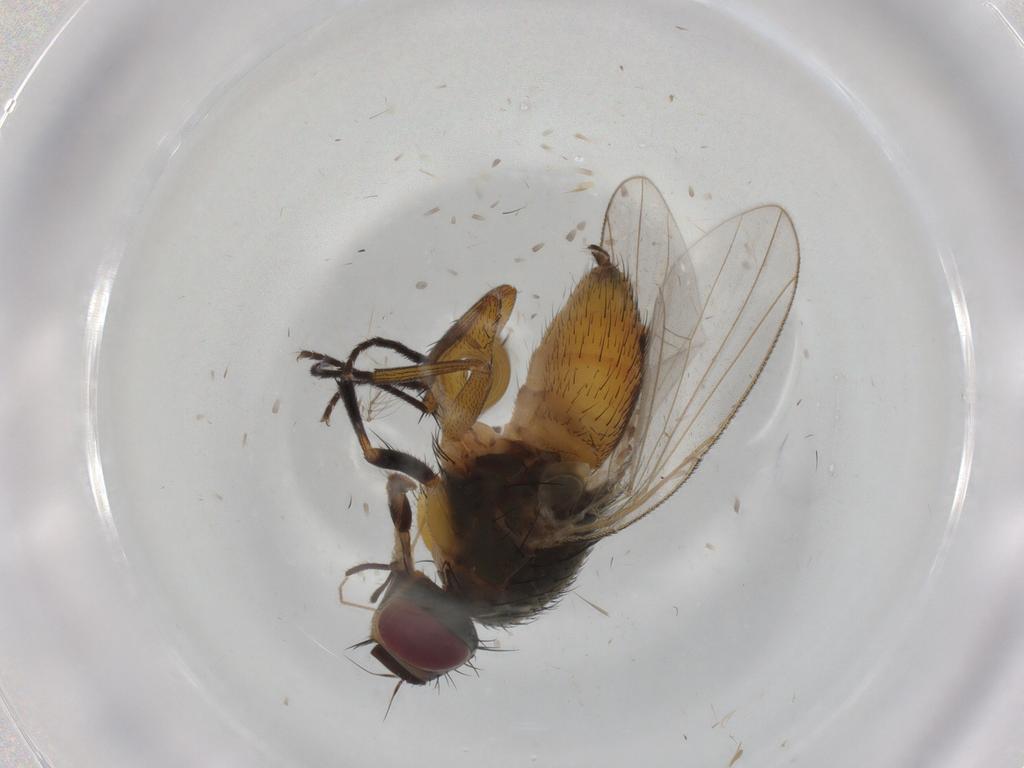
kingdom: Animalia
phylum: Arthropoda
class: Insecta
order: Diptera
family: Muscidae
